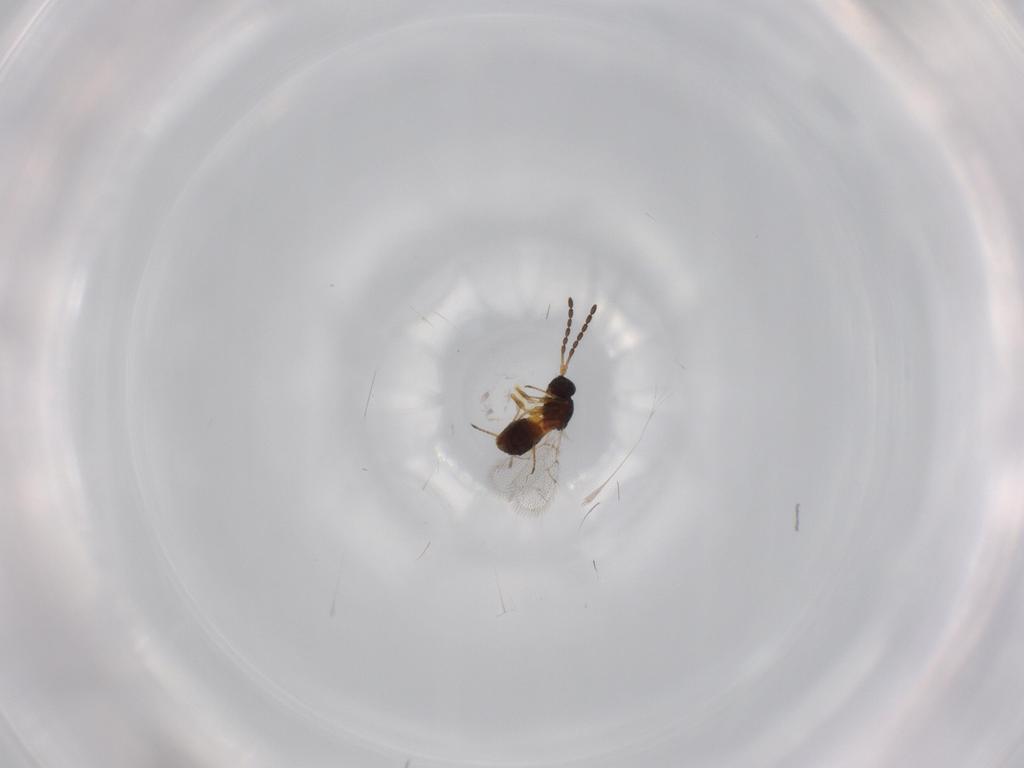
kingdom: Animalia
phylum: Arthropoda
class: Insecta
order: Hymenoptera
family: Figitidae
